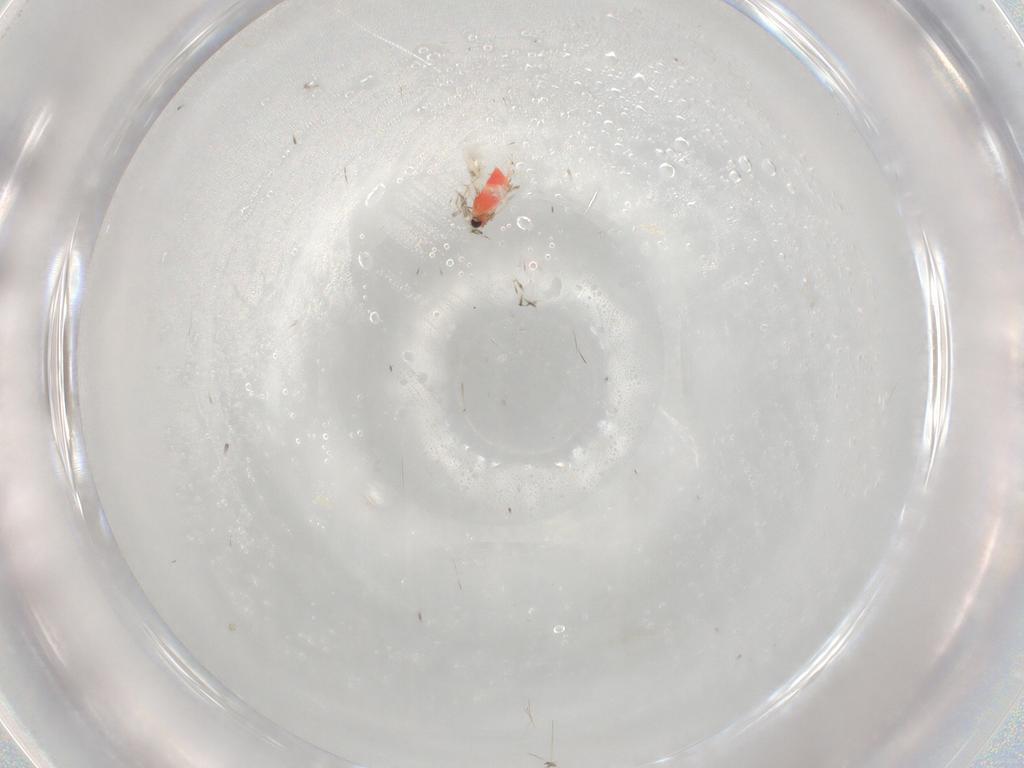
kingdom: Animalia
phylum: Arthropoda
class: Insecta
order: Hymenoptera
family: Trichogrammatidae
